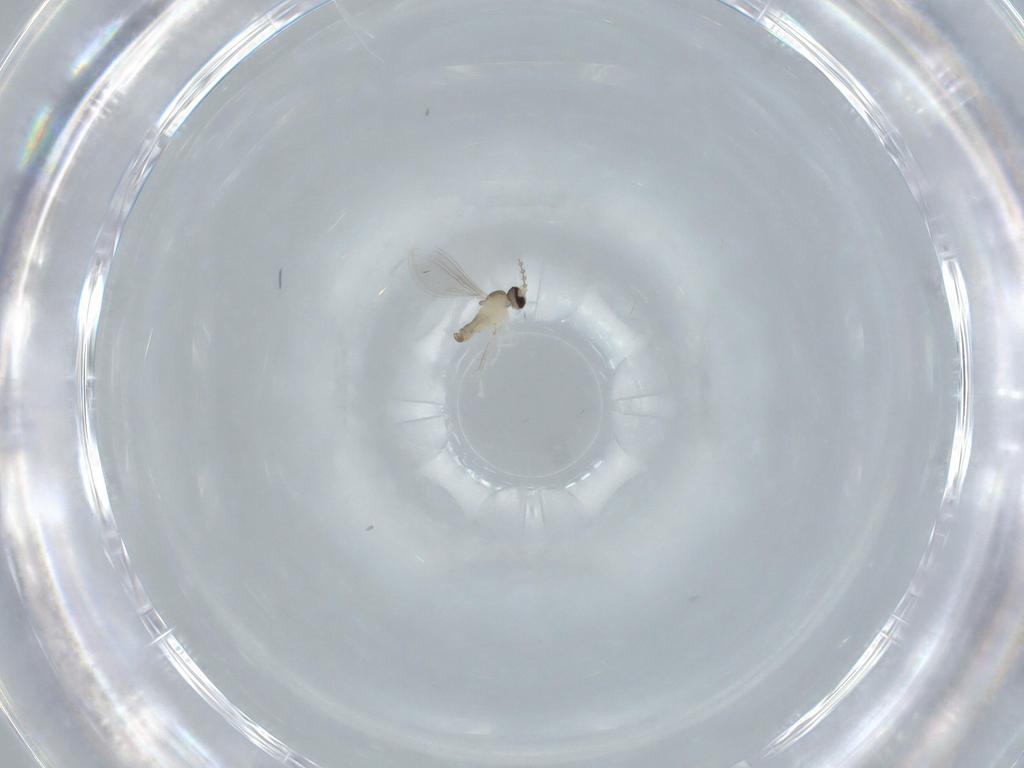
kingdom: Animalia
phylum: Arthropoda
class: Insecta
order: Diptera
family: Cecidomyiidae
